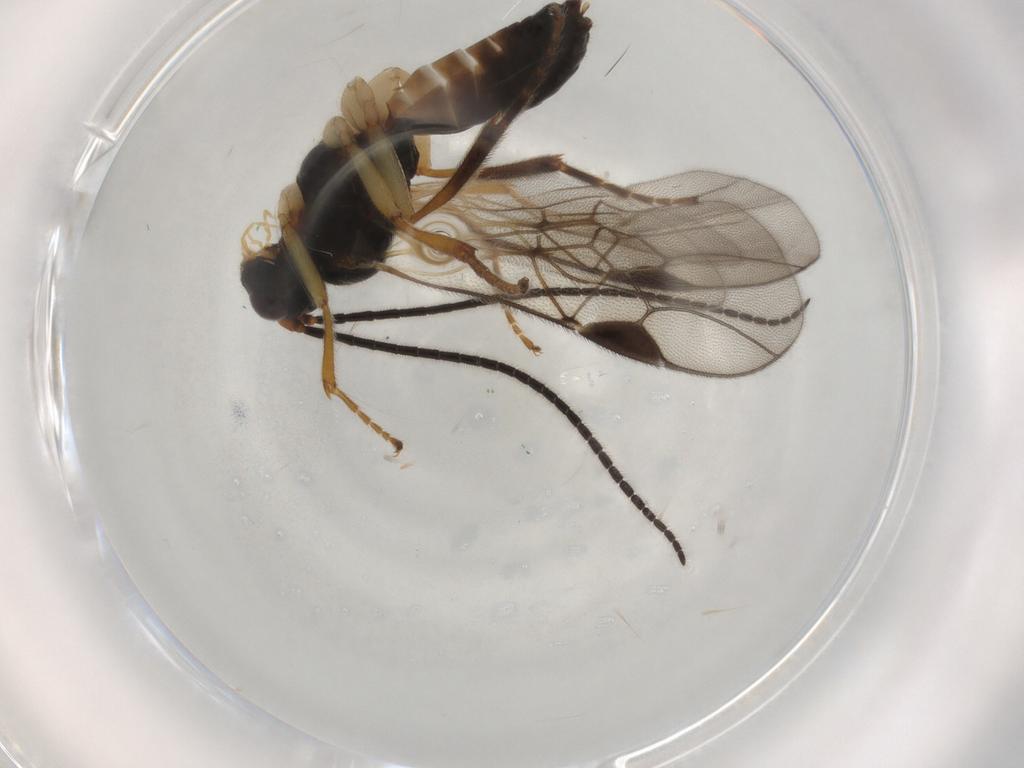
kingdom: Animalia
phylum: Arthropoda
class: Insecta
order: Hymenoptera
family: Braconidae
